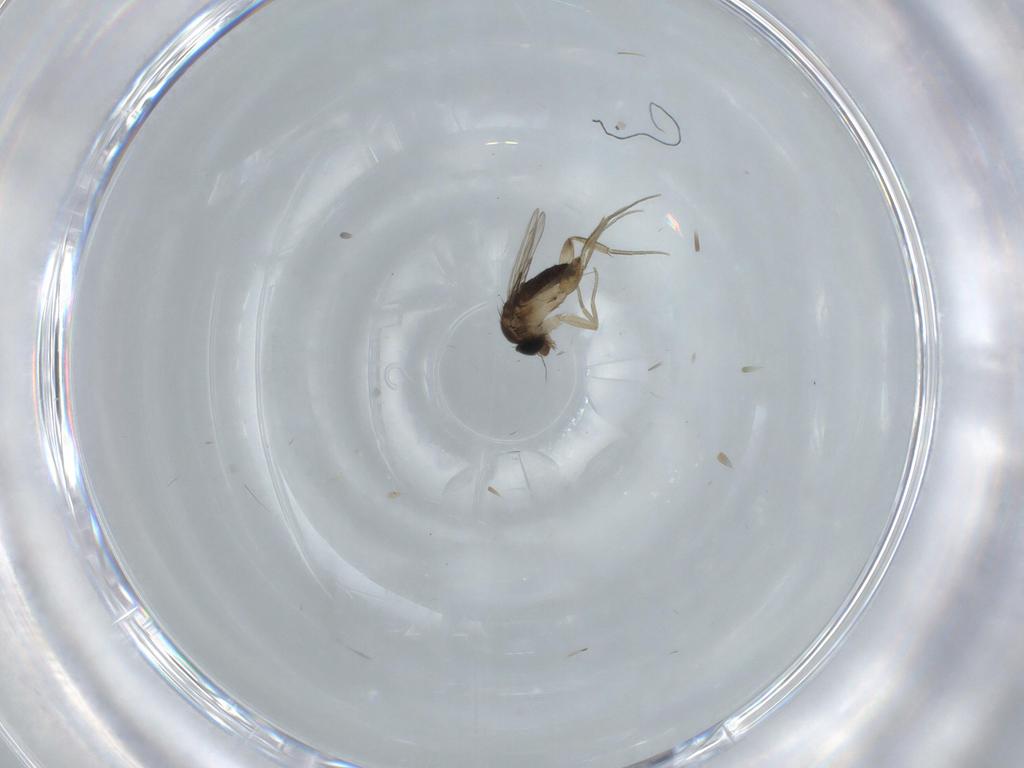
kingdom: Animalia
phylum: Arthropoda
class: Insecta
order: Diptera
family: Phoridae
